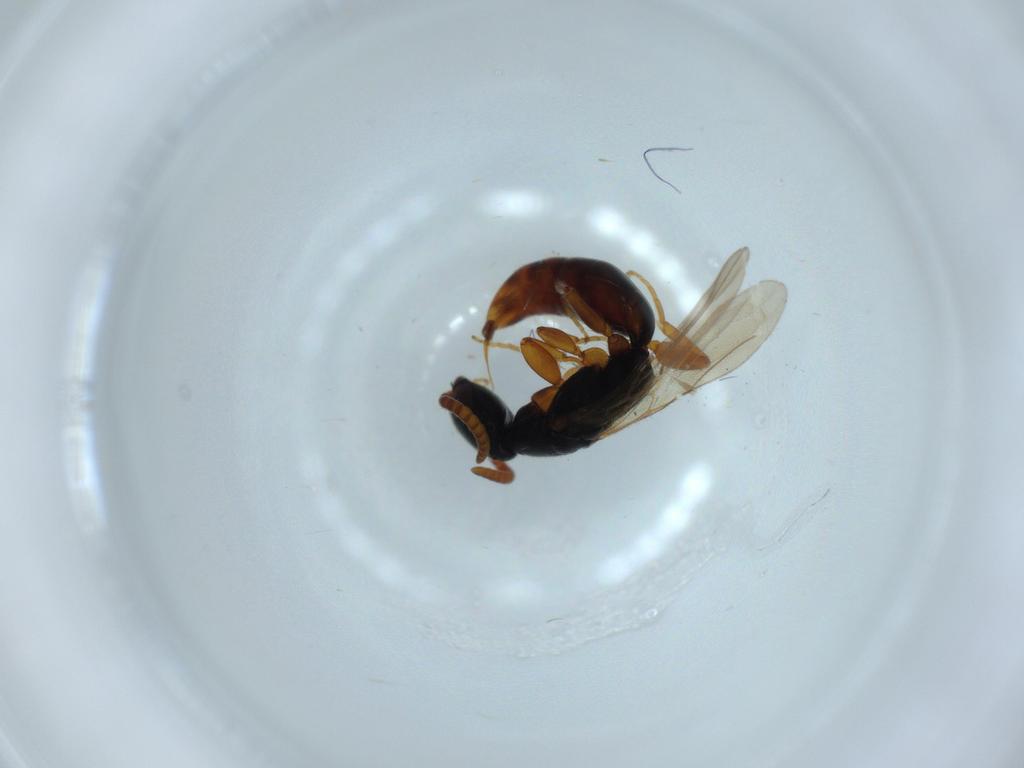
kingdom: Animalia
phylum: Arthropoda
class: Insecta
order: Hymenoptera
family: Bethylidae
